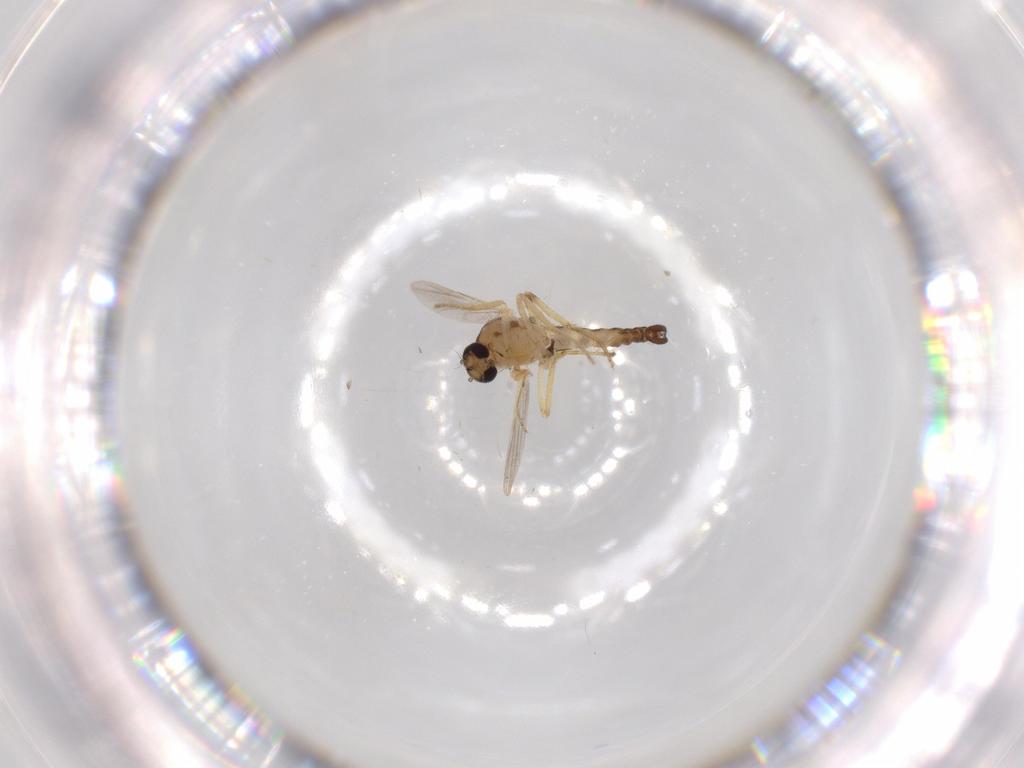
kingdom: Animalia
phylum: Arthropoda
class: Insecta
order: Diptera
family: Ceratopogonidae
